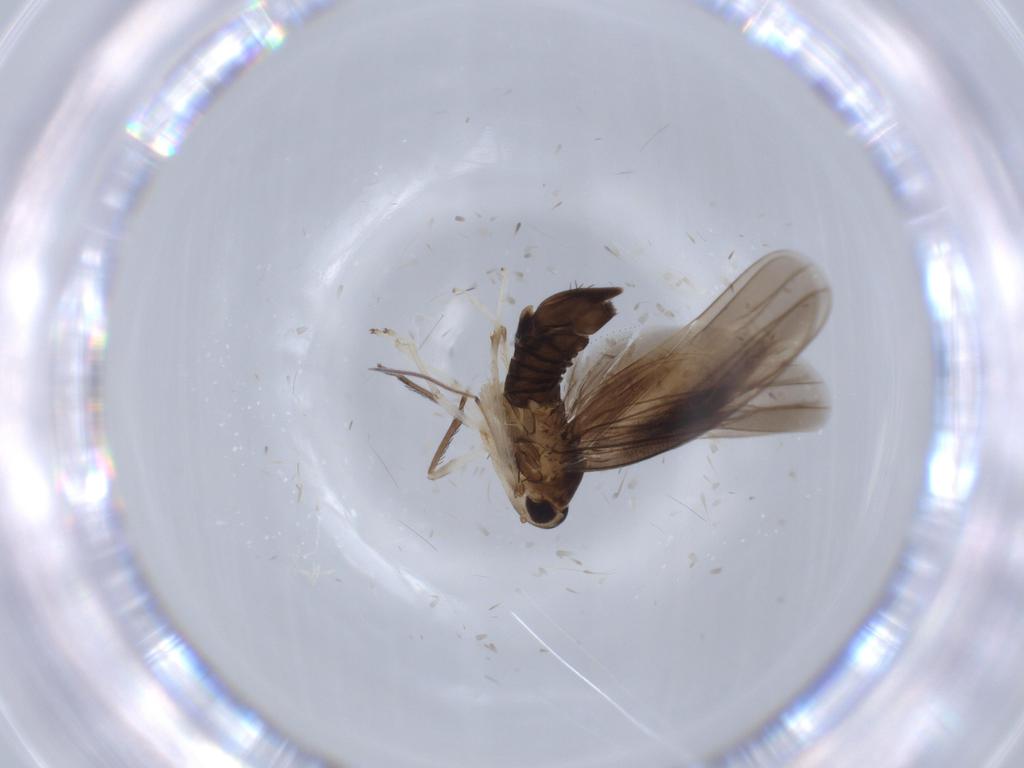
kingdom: Animalia
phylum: Arthropoda
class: Insecta
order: Hemiptera
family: Cicadellidae
